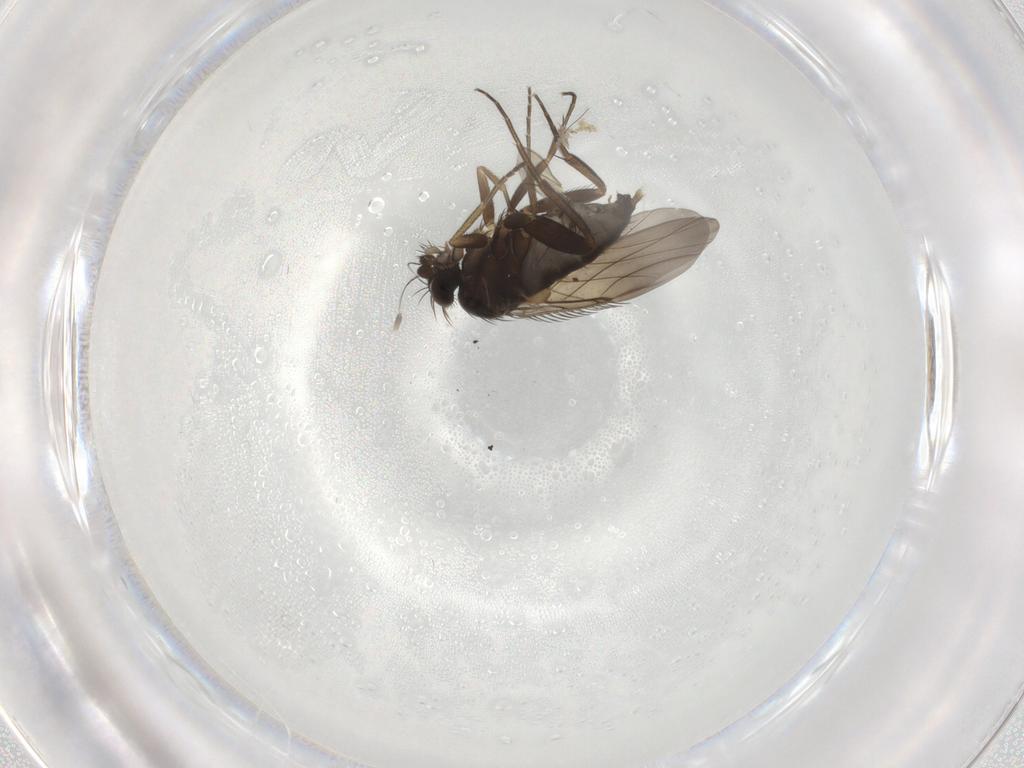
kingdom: Animalia
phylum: Arthropoda
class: Insecta
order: Diptera
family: Phoridae
